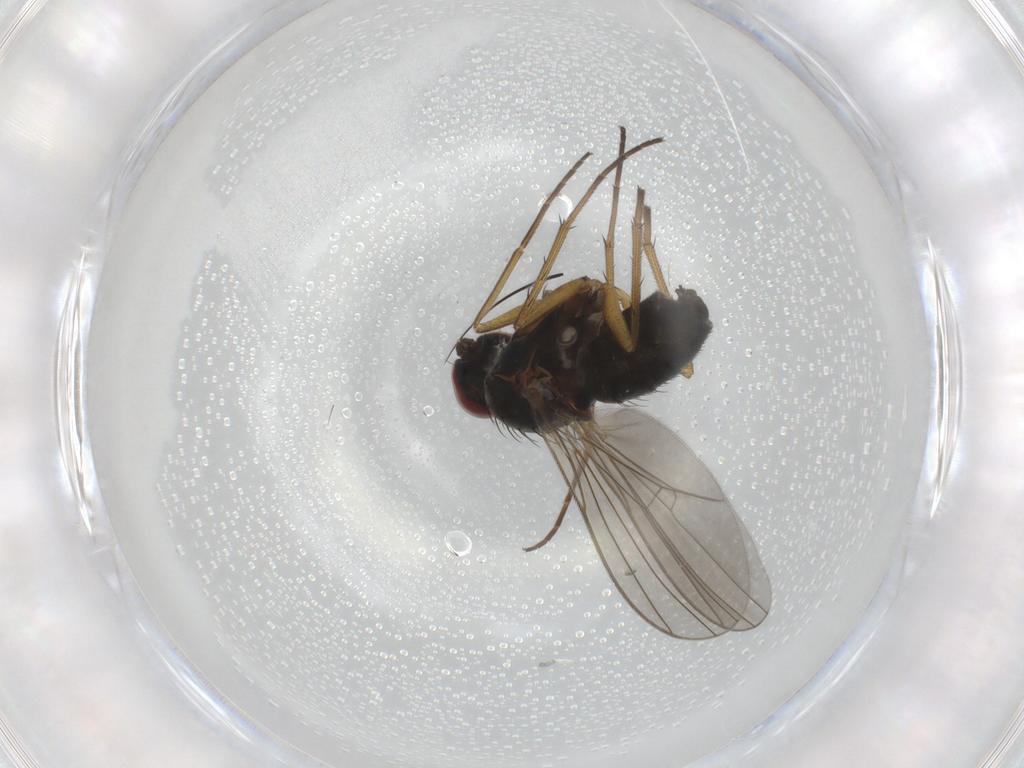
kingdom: Animalia
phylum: Arthropoda
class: Insecta
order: Diptera
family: Dolichopodidae
